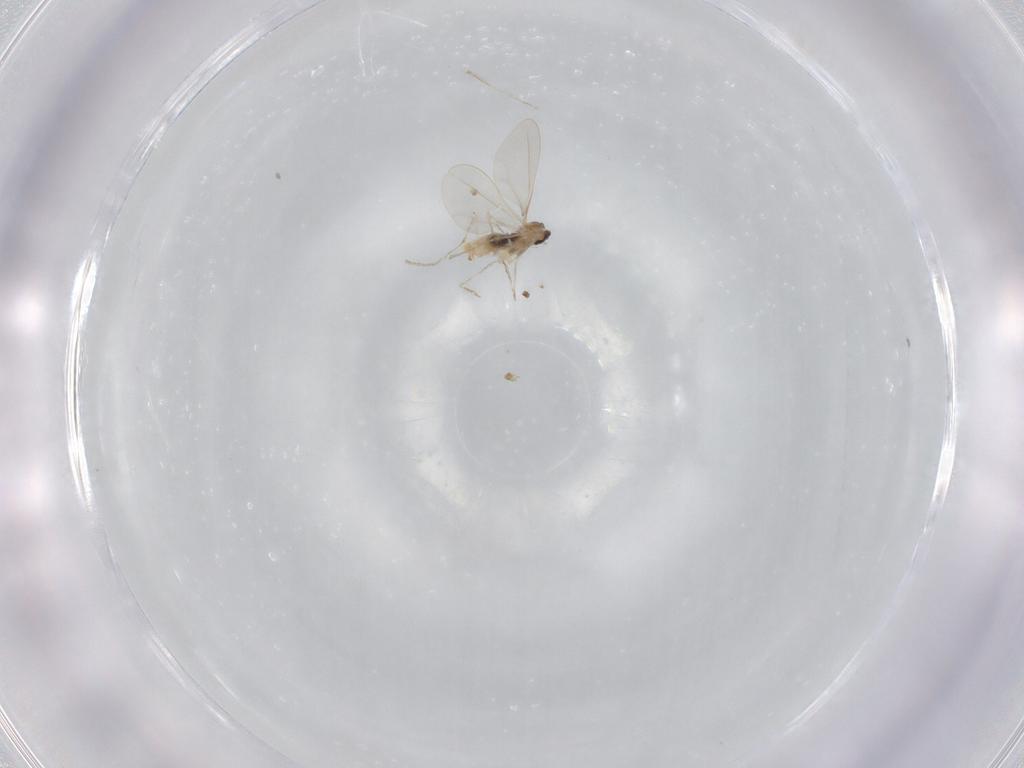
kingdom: Animalia
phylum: Arthropoda
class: Insecta
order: Diptera
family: Cecidomyiidae
